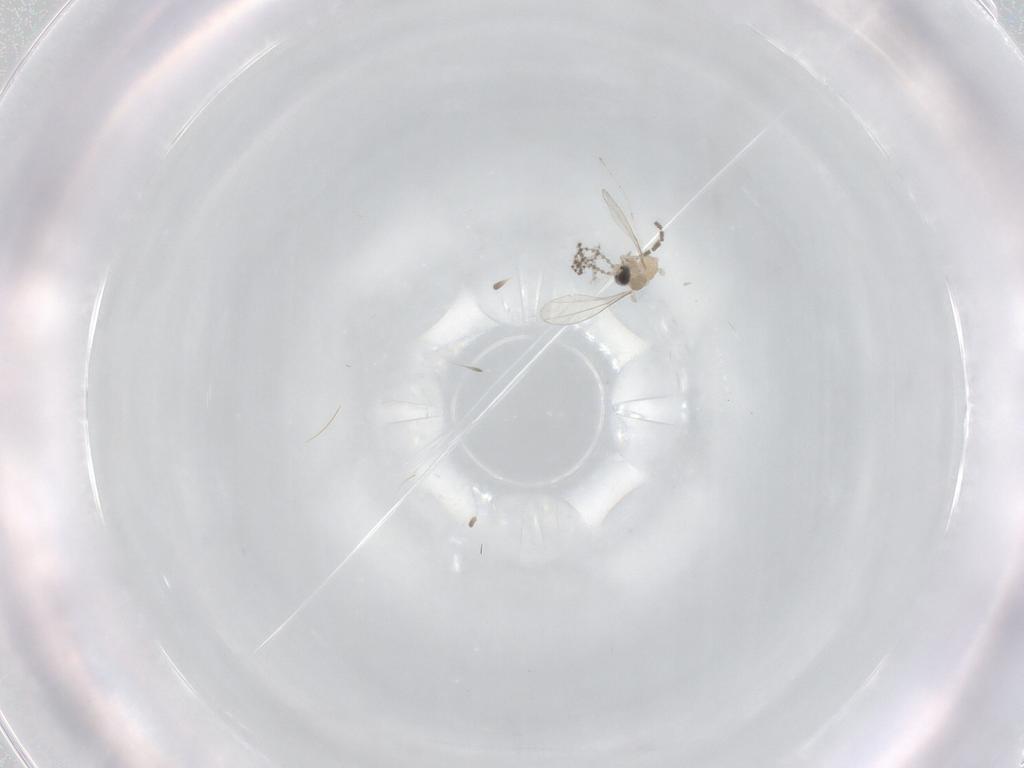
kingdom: Animalia
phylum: Arthropoda
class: Insecta
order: Diptera
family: Cecidomyiidae
